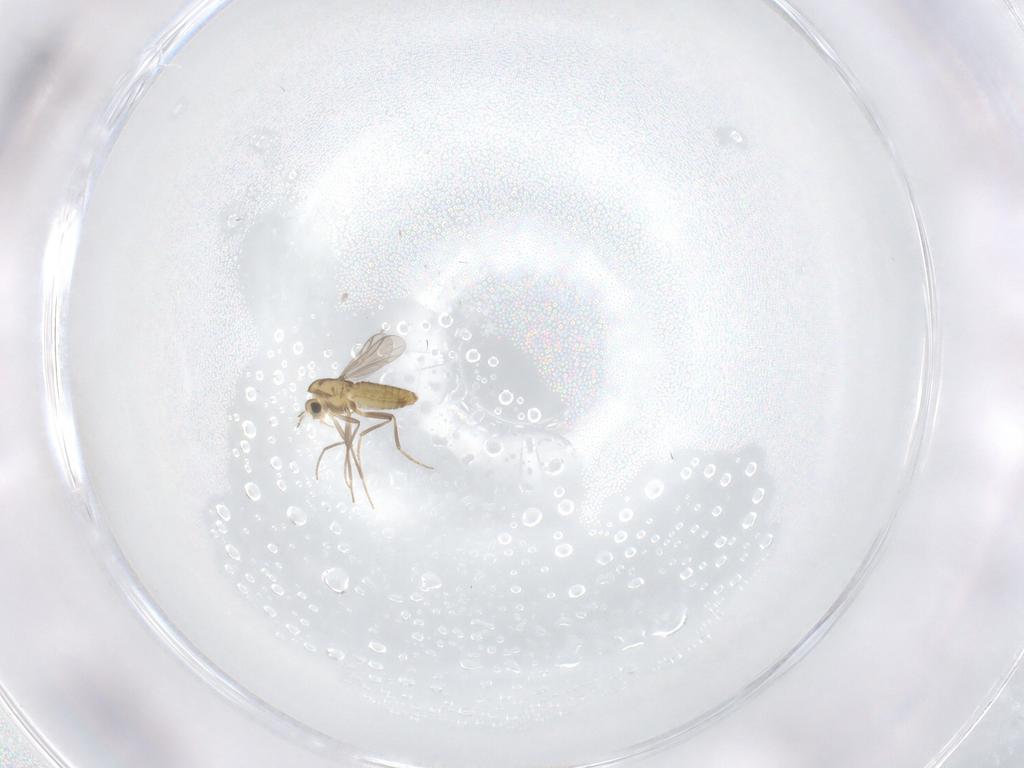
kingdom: Animalia
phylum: Arthropoda
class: Insecta
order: Diptera
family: Chironomidae
